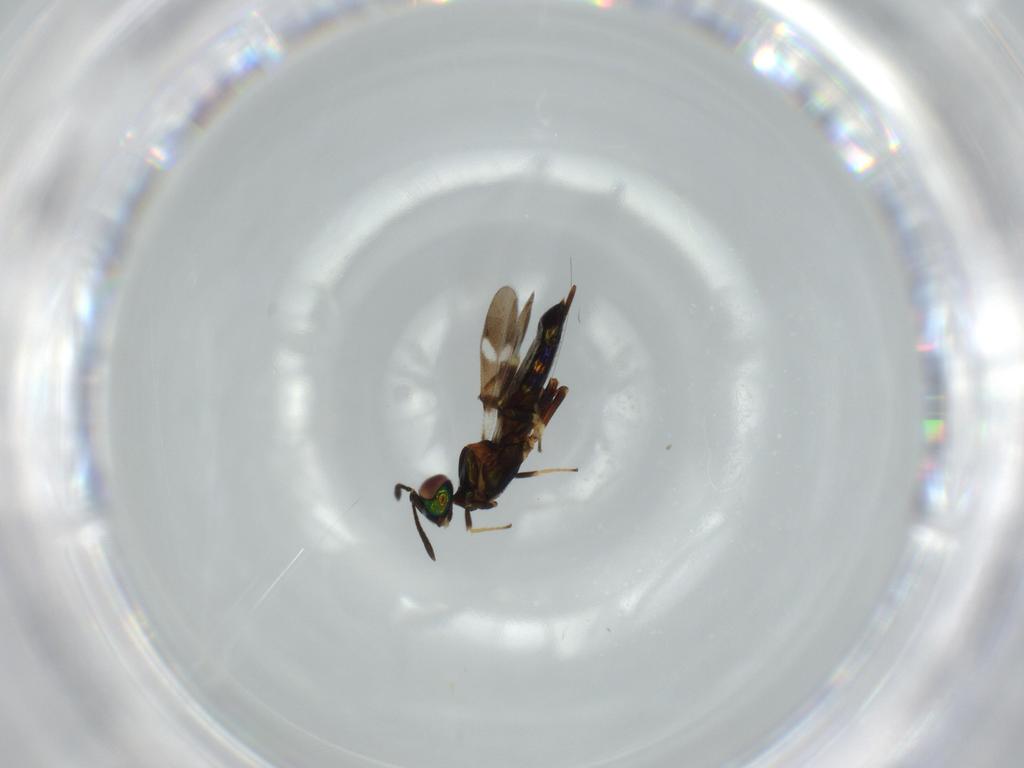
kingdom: Animalia
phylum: Arthropoda
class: Insecta
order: Hymenoptera
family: Eupelmidae
